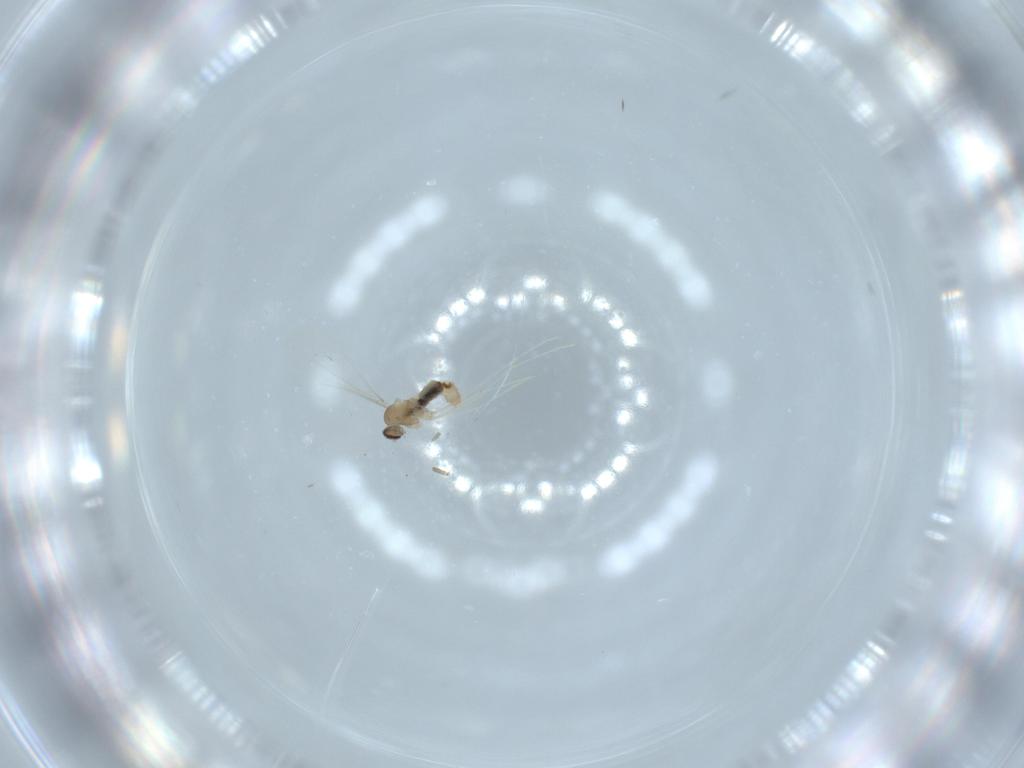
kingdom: Animalia
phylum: Arthropoda
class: Insecta
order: Diptera
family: Cecidomyiidae
